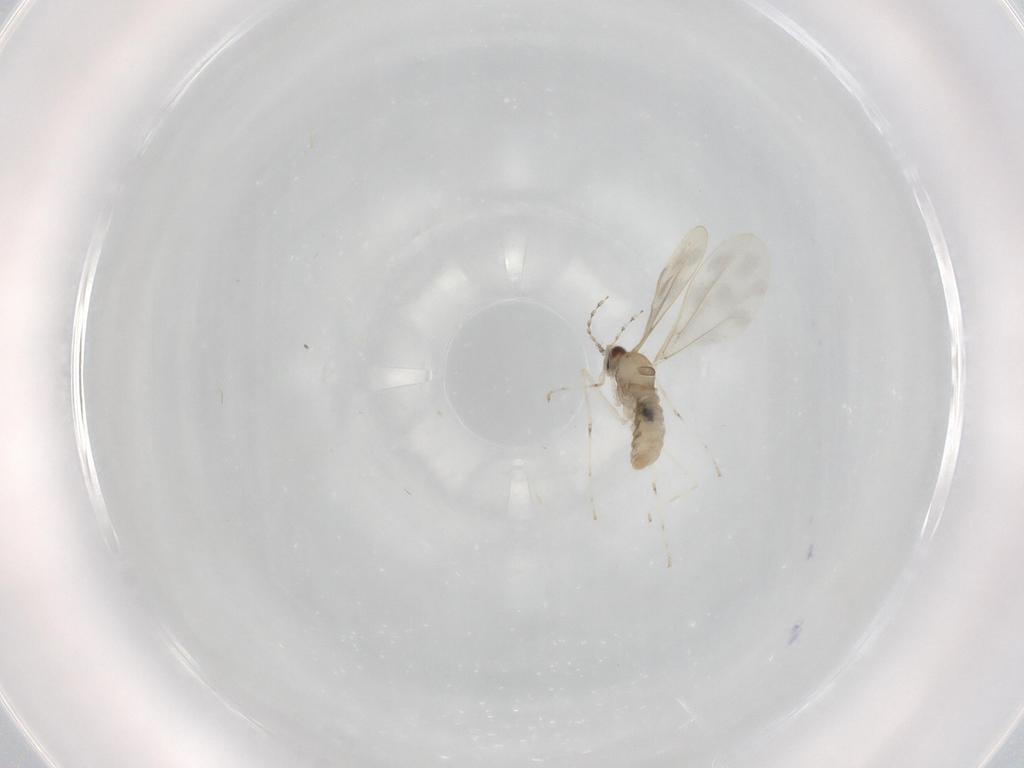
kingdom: Animalia
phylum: Arthropoda
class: Insecta
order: Diptera
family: Cecidomyiidae
